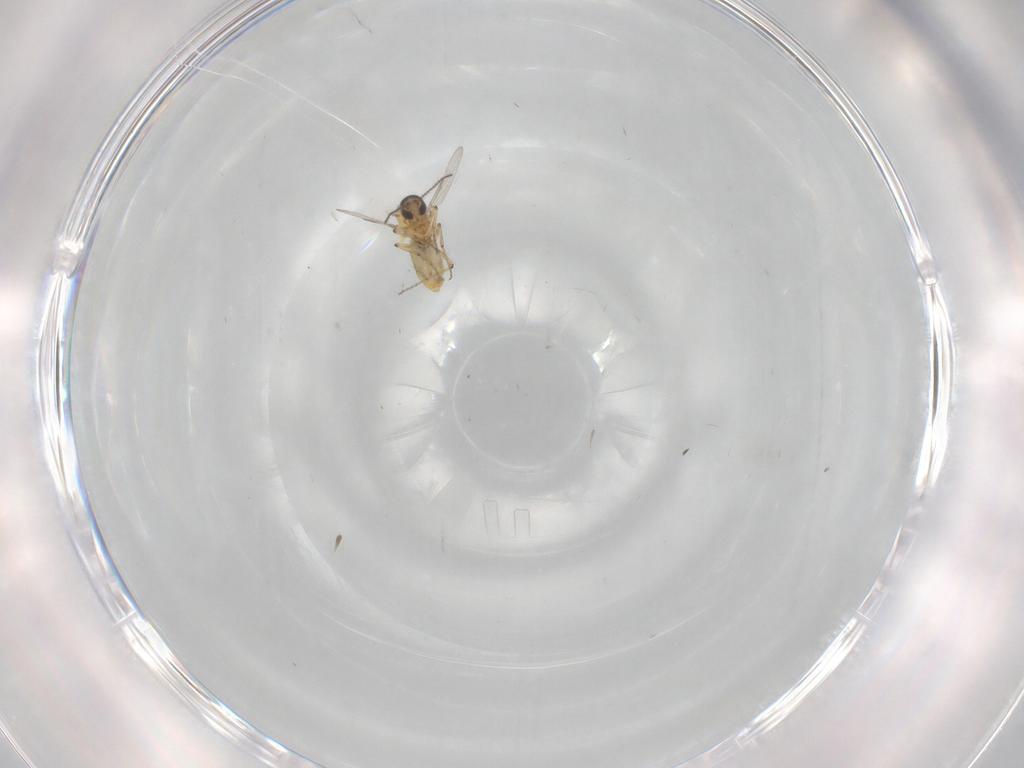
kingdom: Animalia
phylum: Arthropoda
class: Insecta
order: Diptera
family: Ceratopogonidae
